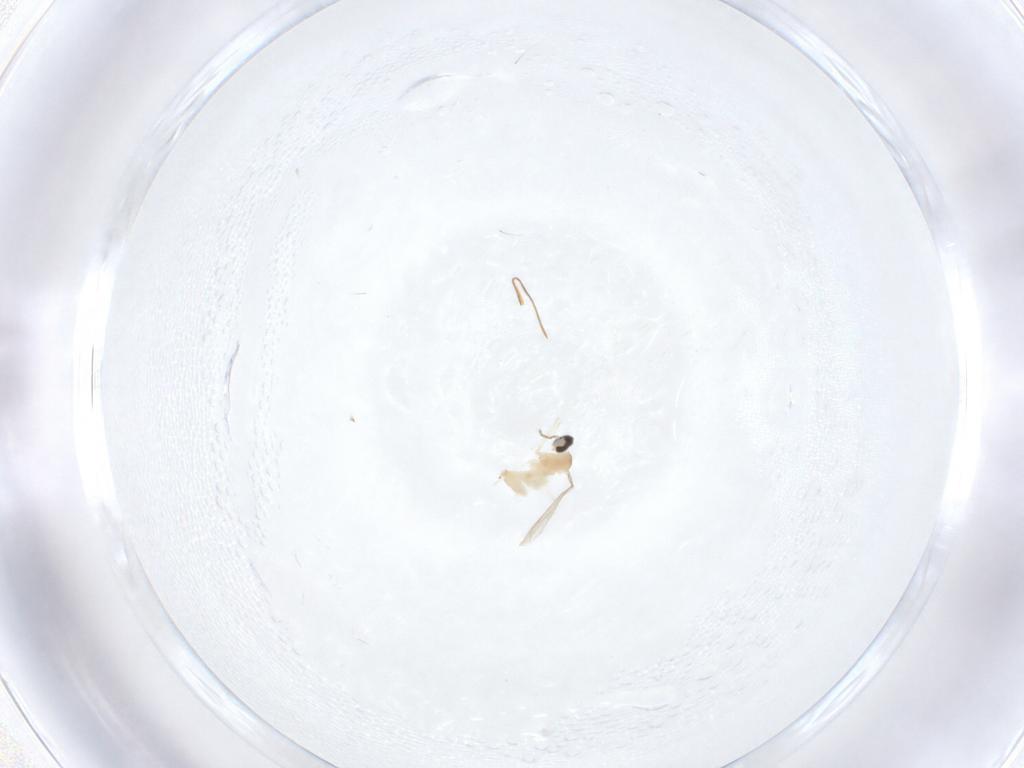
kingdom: Animalia
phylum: Arthropoda
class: Insecta
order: Diptera
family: Cecidomyiidae
